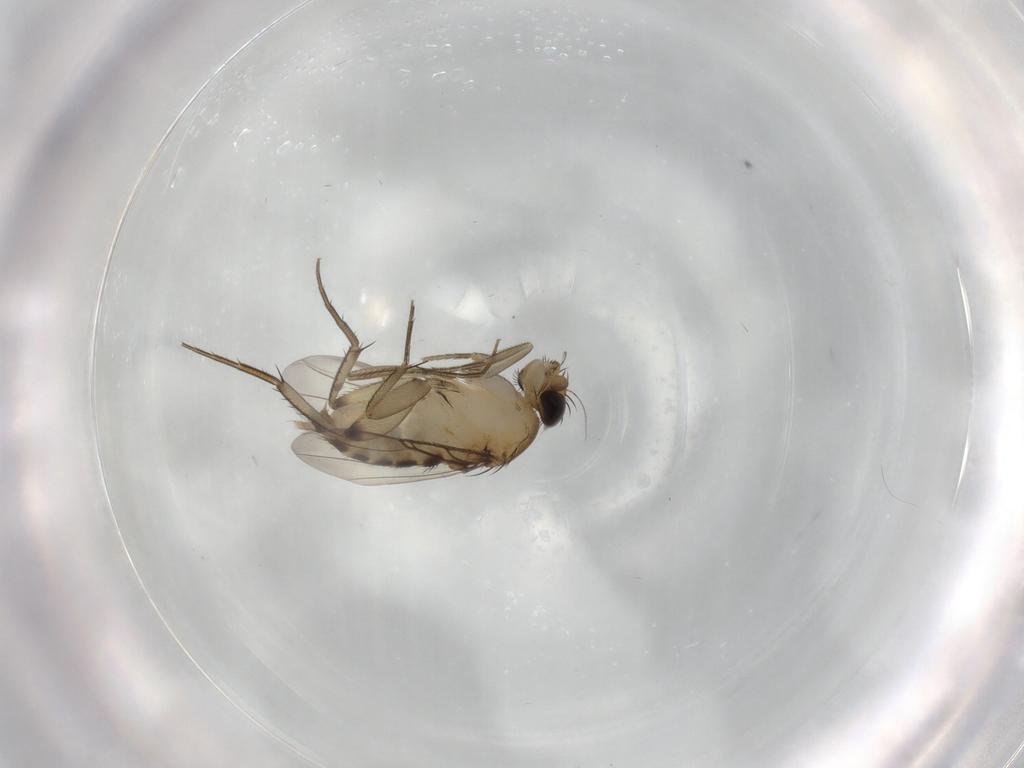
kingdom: Animalia
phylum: Arthropoda
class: Insecta
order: Diptera
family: Phoridae
